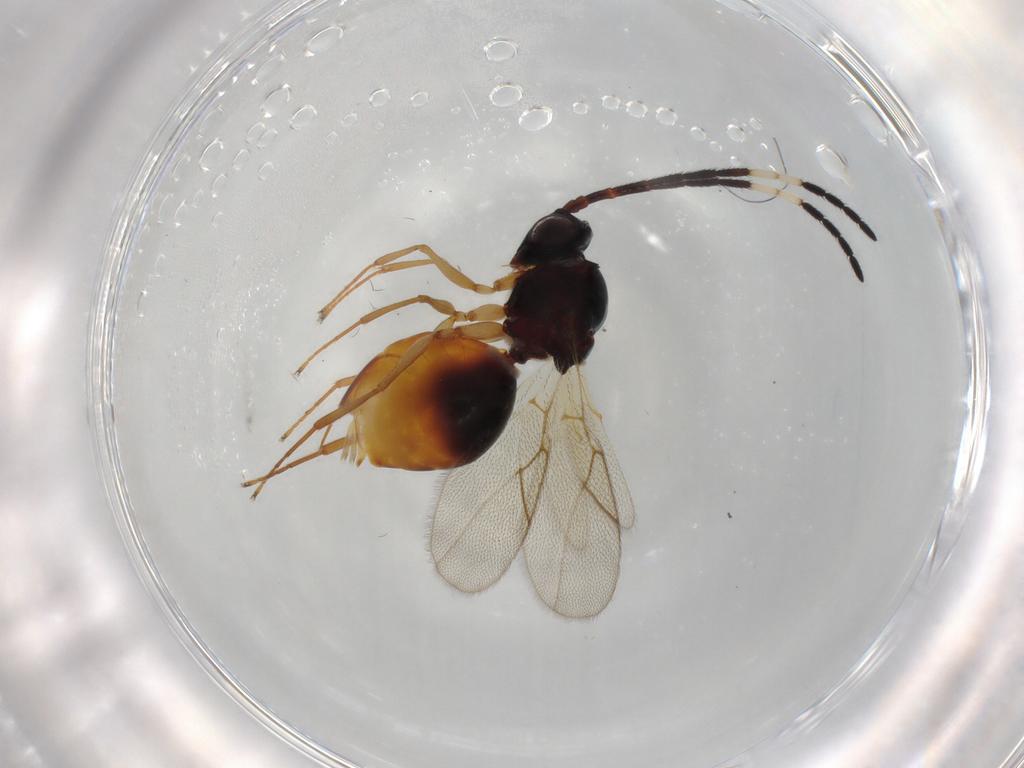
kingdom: Animalia
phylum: Arthropoda
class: Insecta
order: Hymenoptera
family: Figitidae
